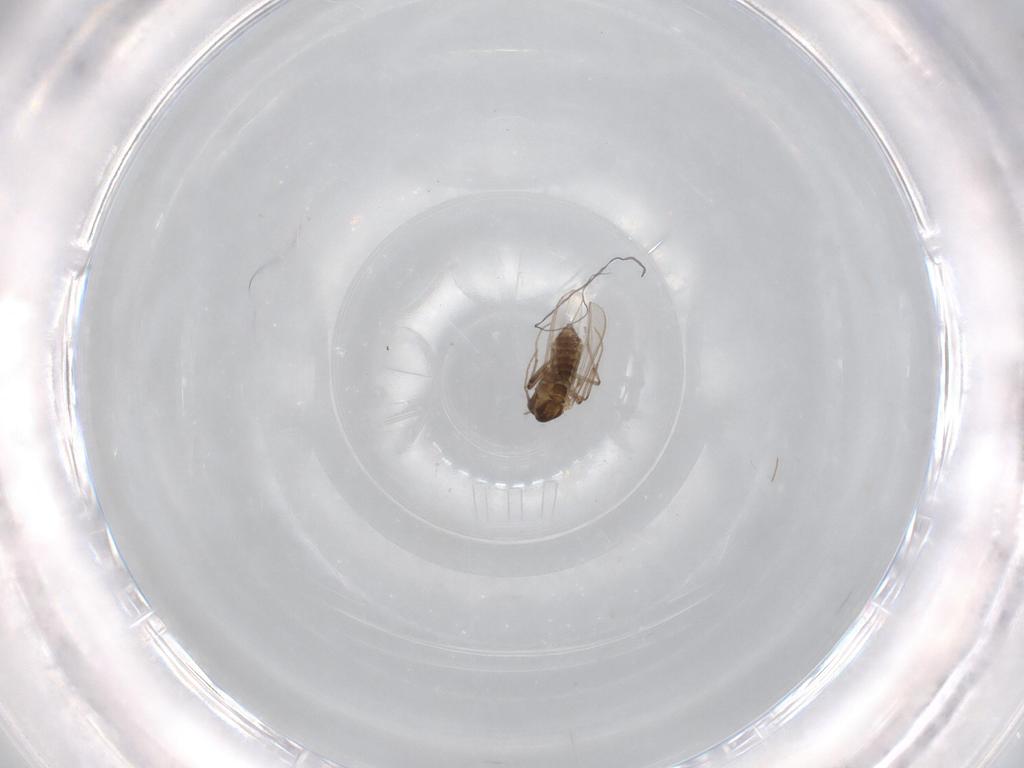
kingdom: Animalia
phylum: Arthropoda
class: Insecta
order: Diptera
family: Chironomidae
